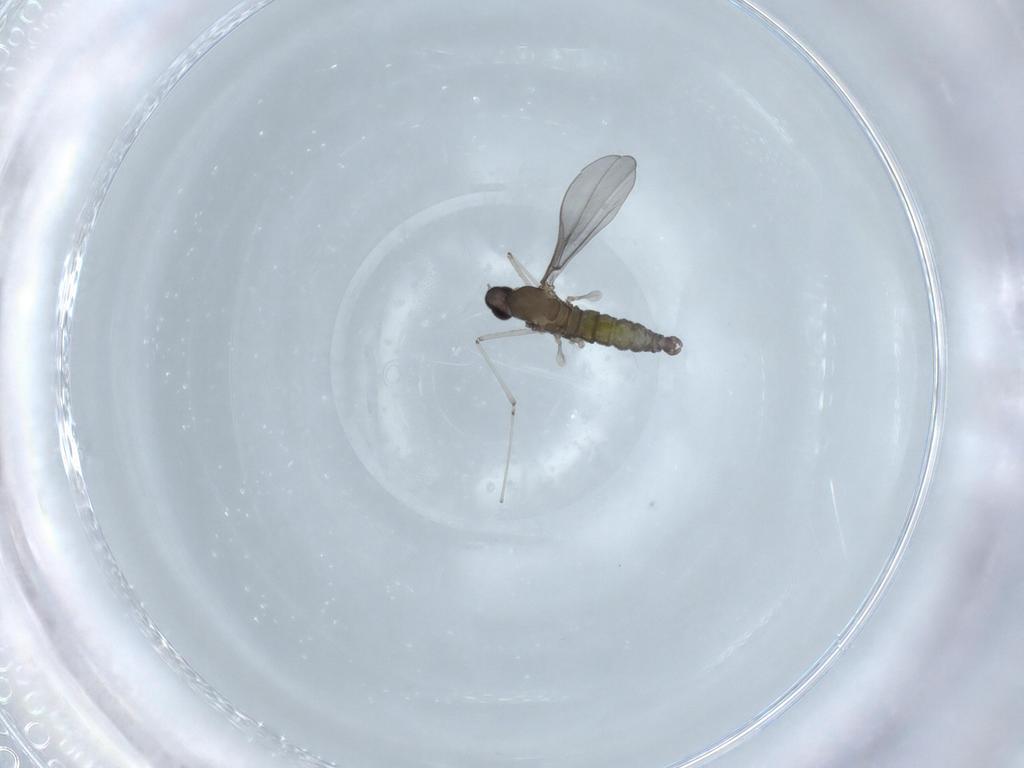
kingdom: Animalia
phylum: Arthropoda
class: Insecta
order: Diptera
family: Sciaridae
